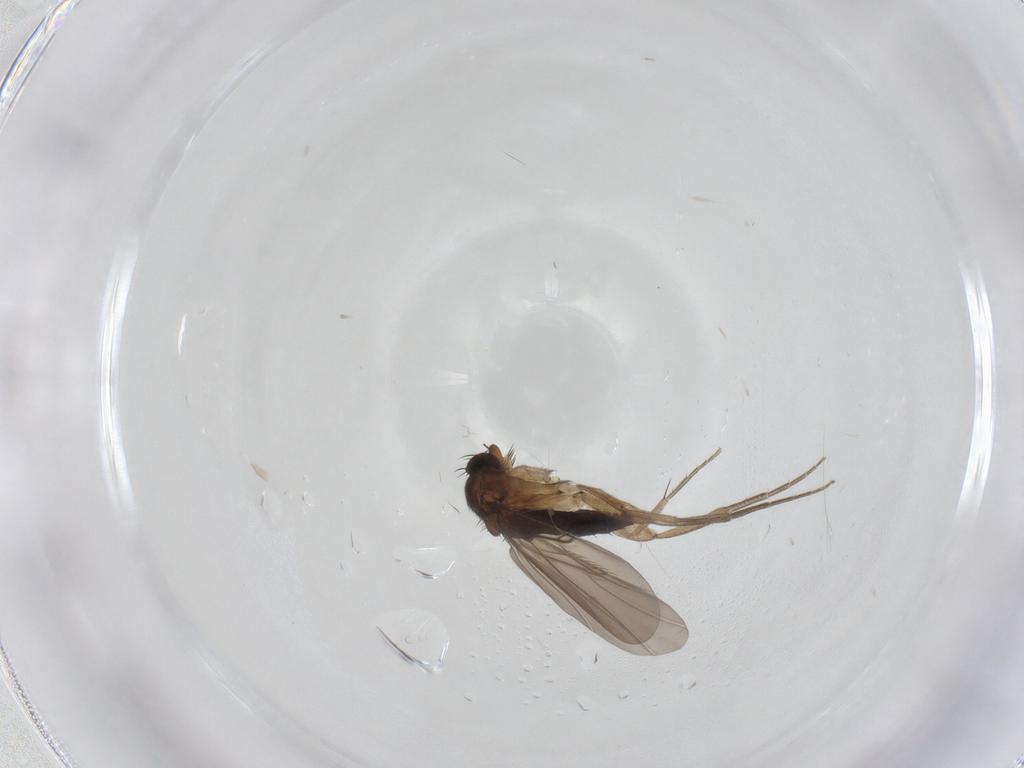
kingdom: Animalia
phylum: Arthropoda
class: Insecta
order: Diptera
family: Phoridae
